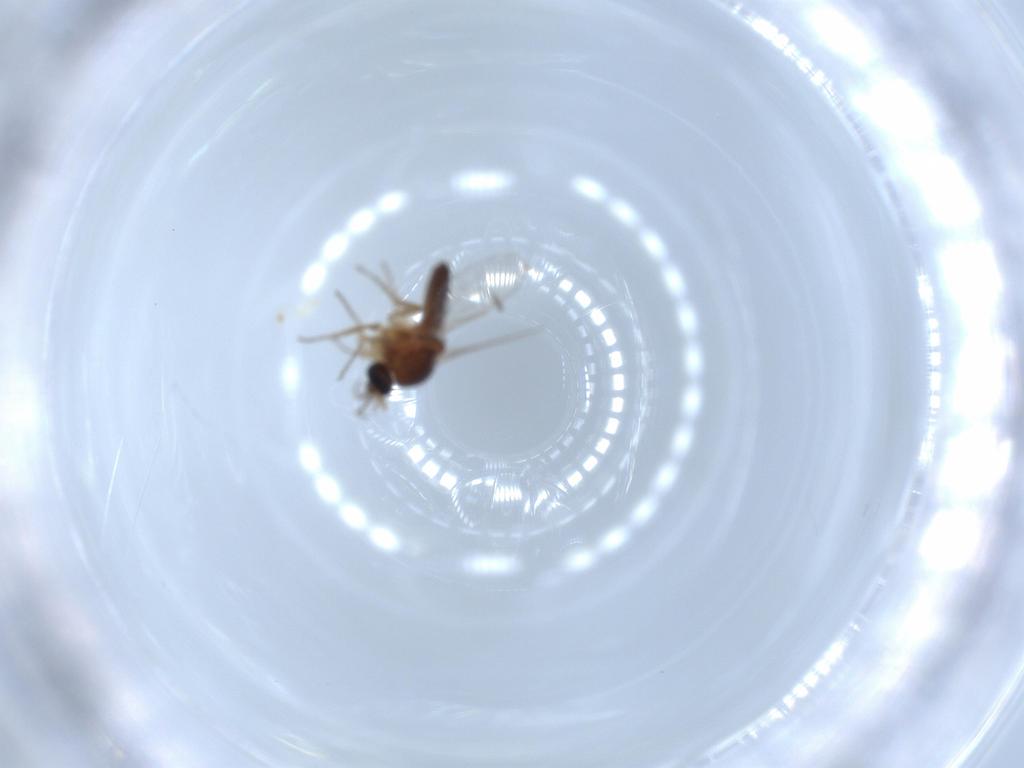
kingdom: Animalia
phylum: Arthropoda
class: Insecta
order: Diptera
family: Ceratopogonidae
